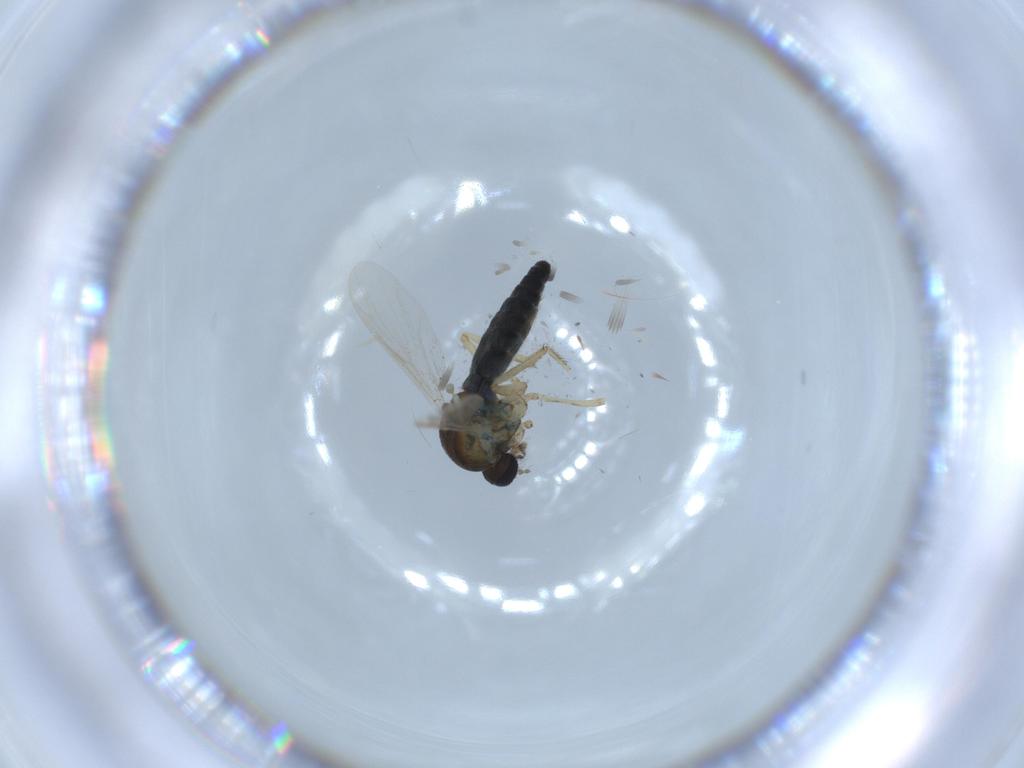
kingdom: Animalia
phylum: Arthropoda
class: Insecta
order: Diptera
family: Ceratopogonidae
